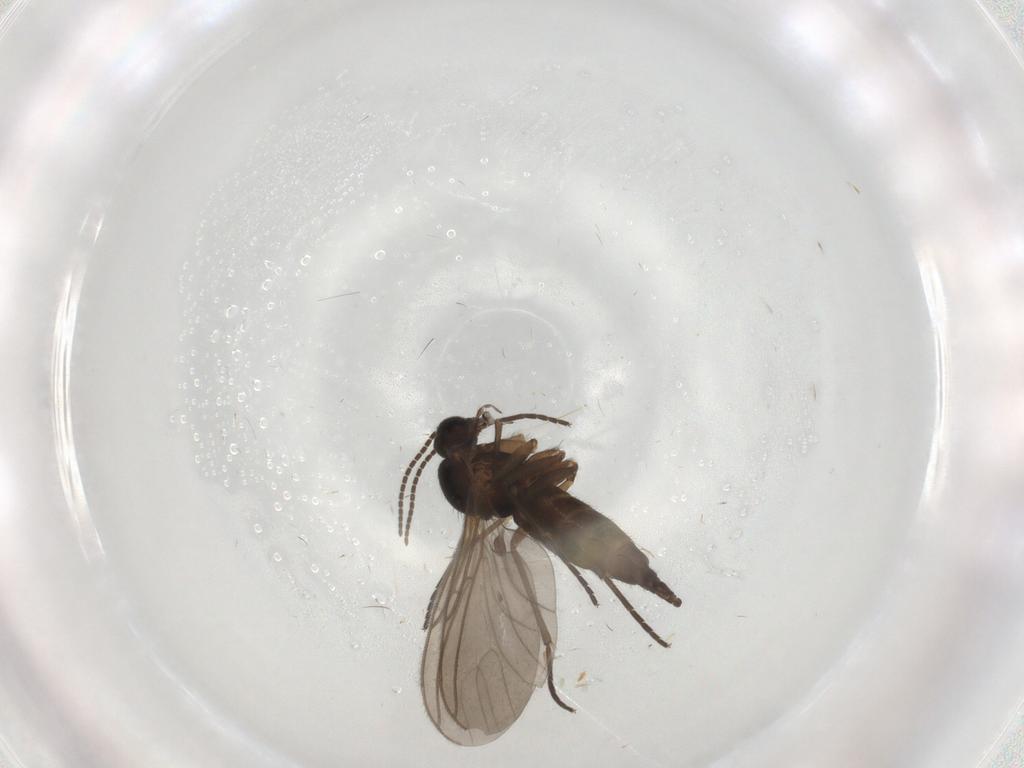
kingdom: Animalia
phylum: Arthropoda
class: Insecta
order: Diptera
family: Sciaridae
